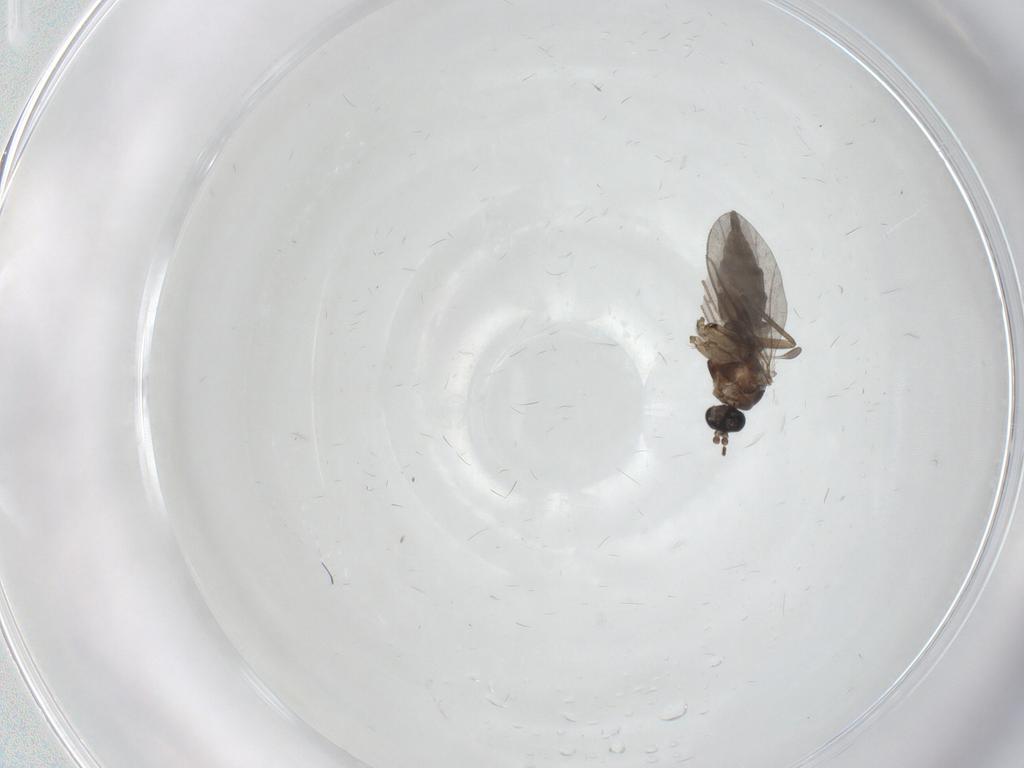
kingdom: Animalia
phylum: Arthropoda
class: Insecta
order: Diptera
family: Sciaridae
